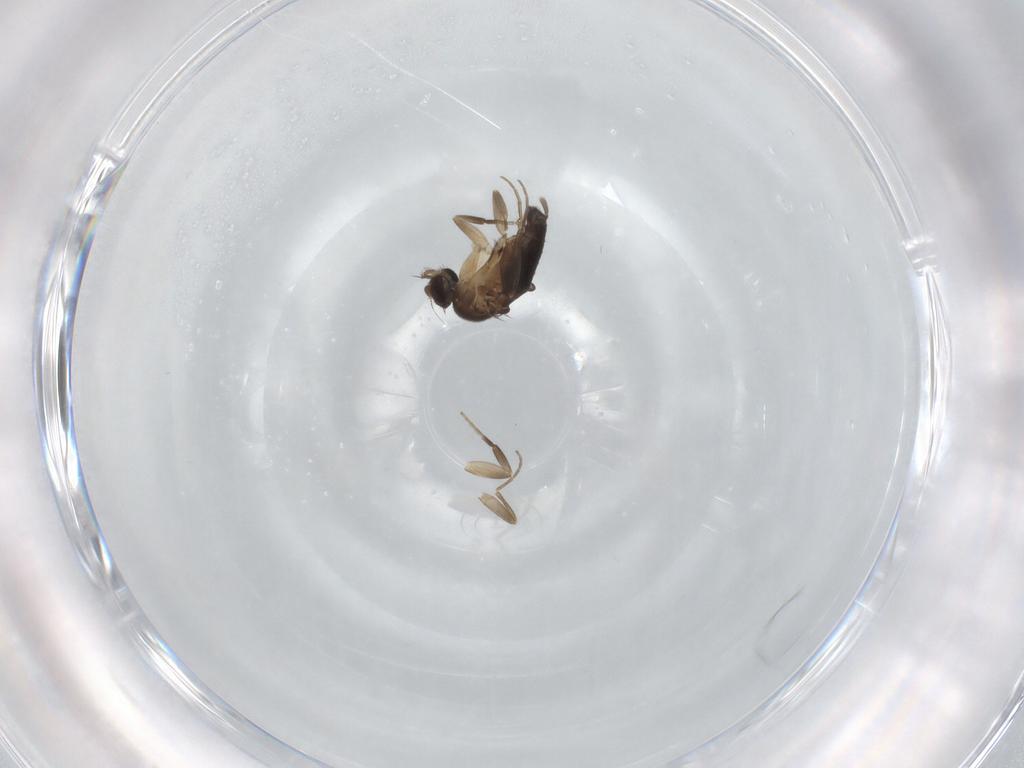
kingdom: Animalia
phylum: Arthropoda
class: Insecta
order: Diptera
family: Phoridae
